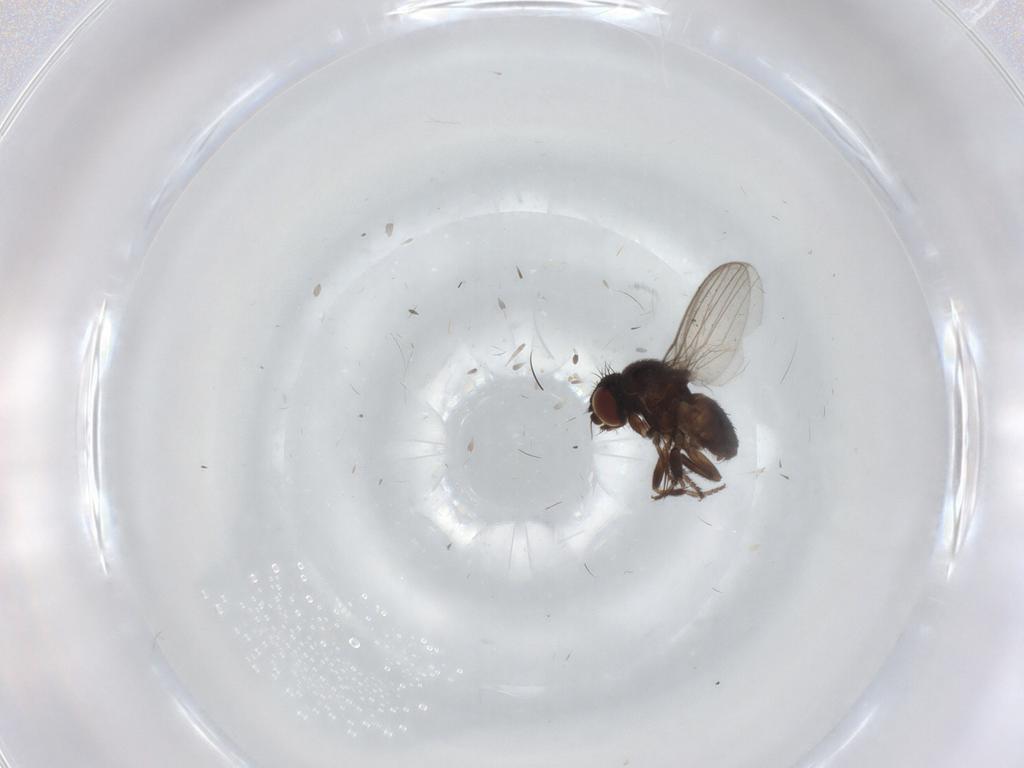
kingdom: Animalia
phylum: Arthropoda
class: Insecta
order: Diptera
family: Milichiidae
